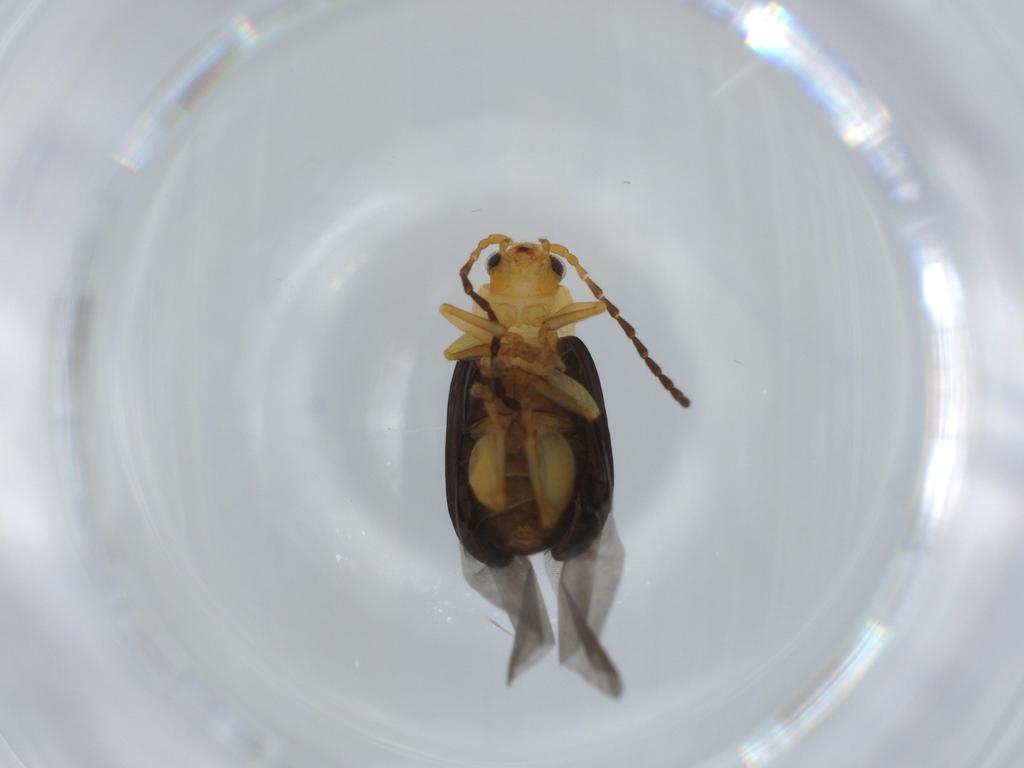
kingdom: Animalia
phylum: Arthropoda
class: Insecta
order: Coleoptera
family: Chrysomelidae
